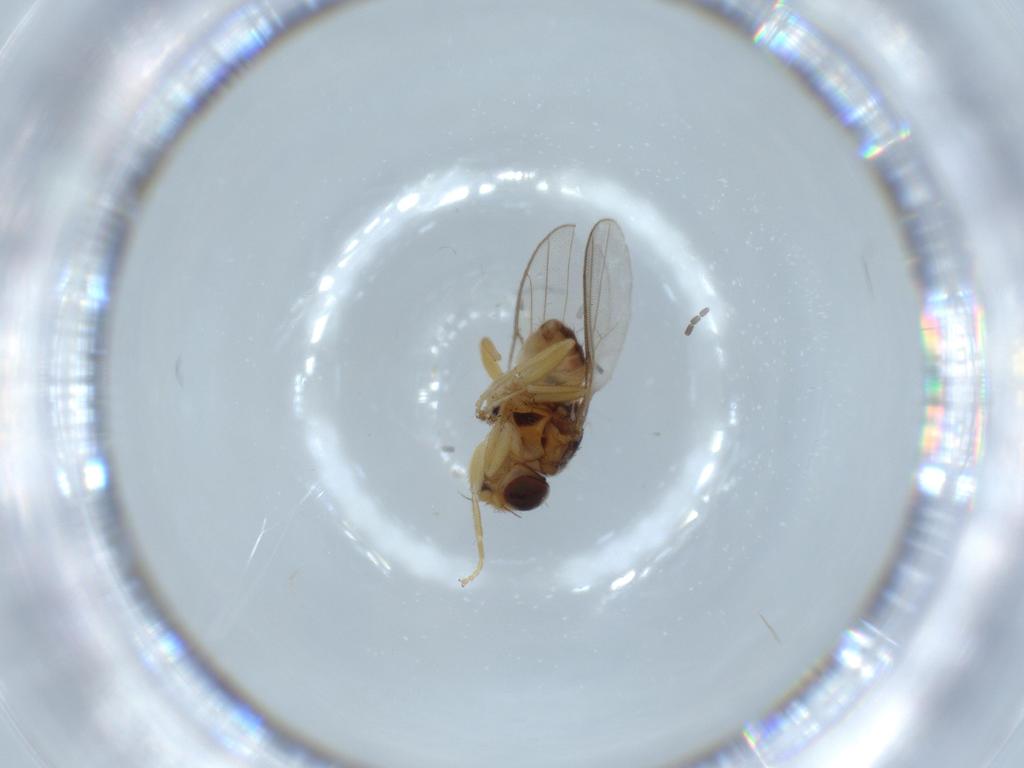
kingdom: Animalia
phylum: Arthropoda
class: Insecta
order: Diptera
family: Chloropidae
